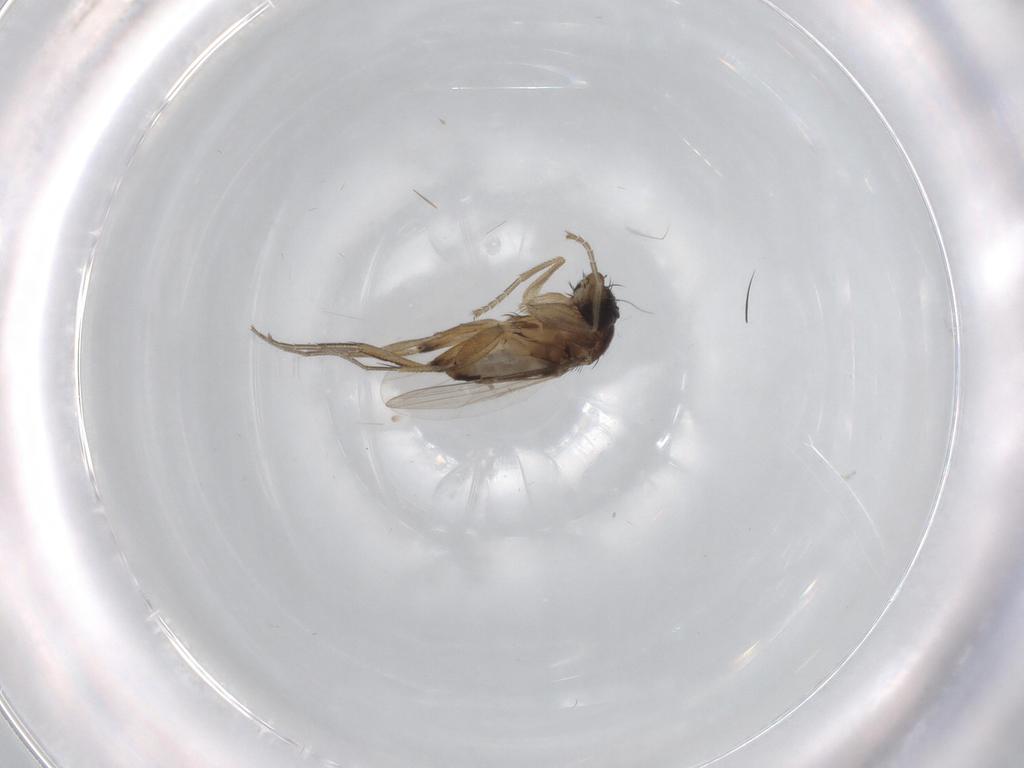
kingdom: Animalia
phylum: Arthropoda
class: Insecta
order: Diptera
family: Phoridae
